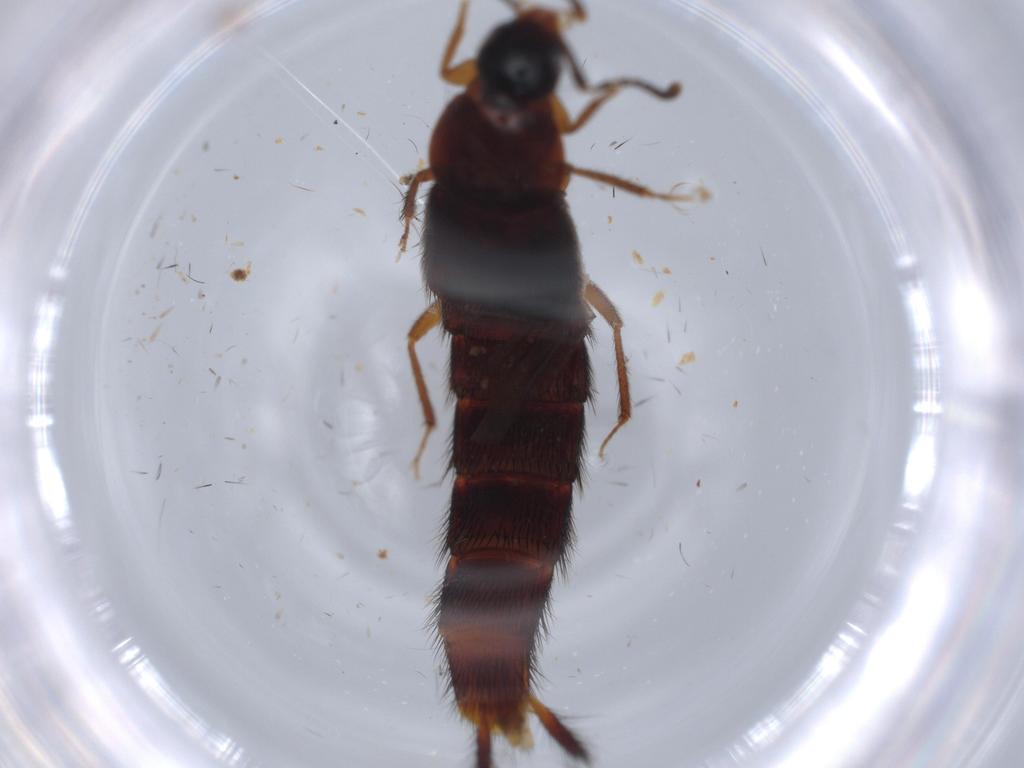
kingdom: Animalia
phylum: Arthropoda
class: Insecta
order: Coleoptera
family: Staphylinidae
